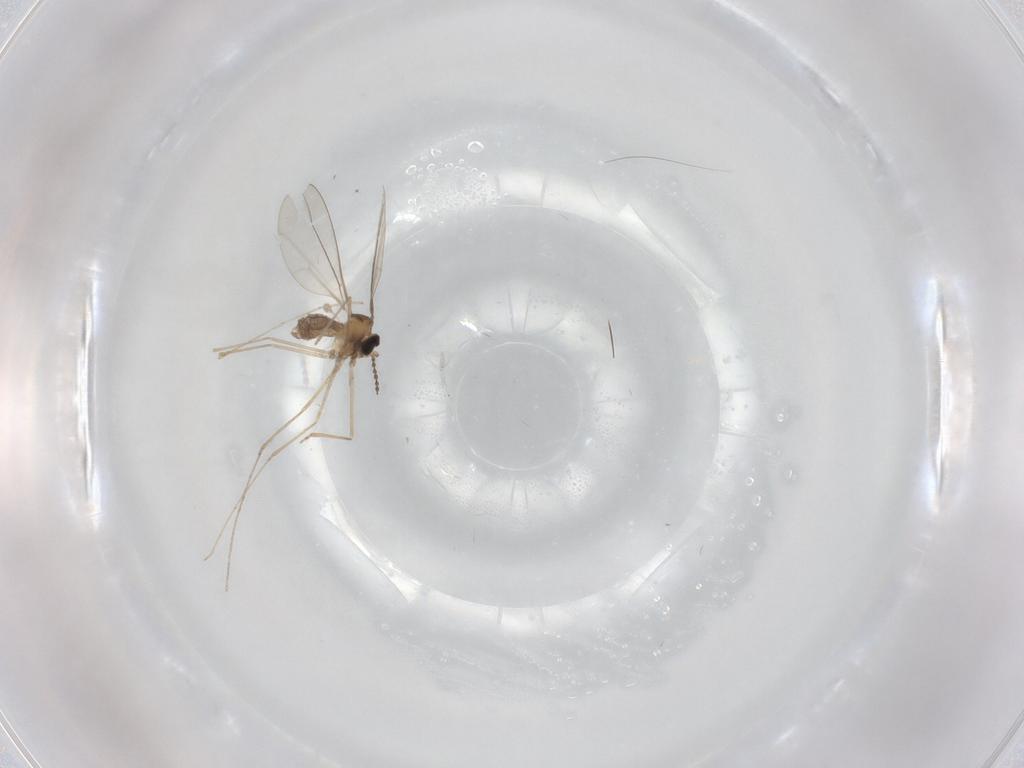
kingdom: Animalia
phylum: Arthropoda
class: Insecta
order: Diptera
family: Cecidomyiidae
